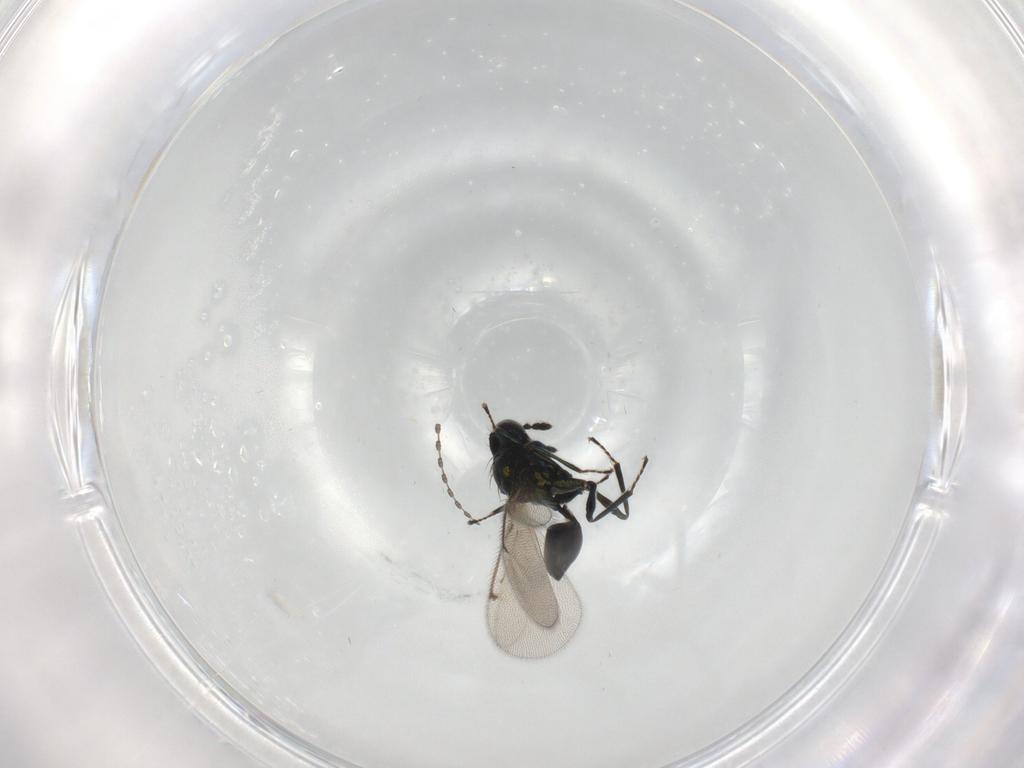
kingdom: Animalia
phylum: Arthropoda
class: Insecta
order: Hymenoptera
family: Eulophidae
